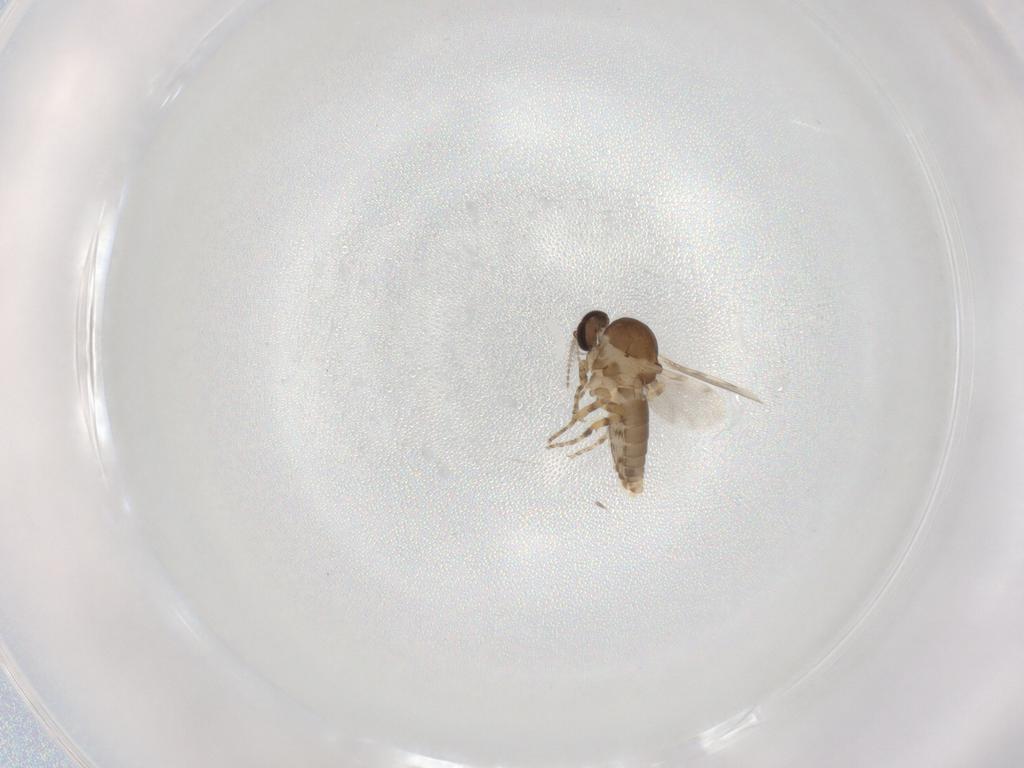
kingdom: Animalia
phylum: Arthropoda
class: Insecta
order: Diptera
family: Ceratopogonidae
